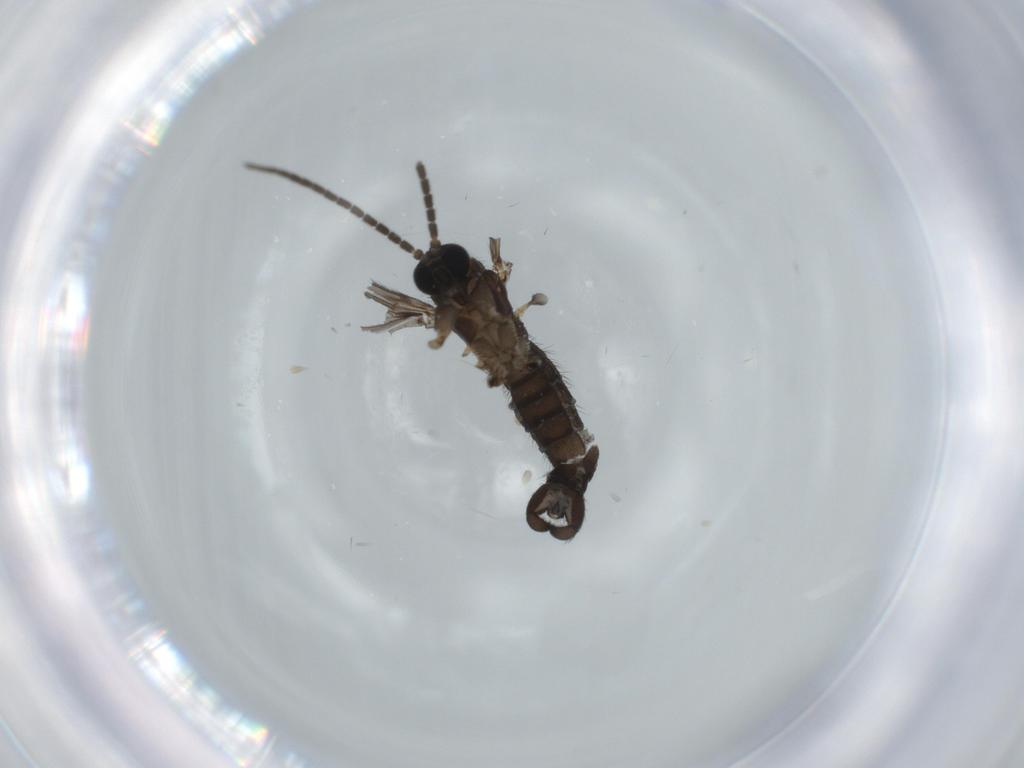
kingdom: Animalia
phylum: Arthropoda
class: Insecta
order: Diptera
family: Sciaridae
